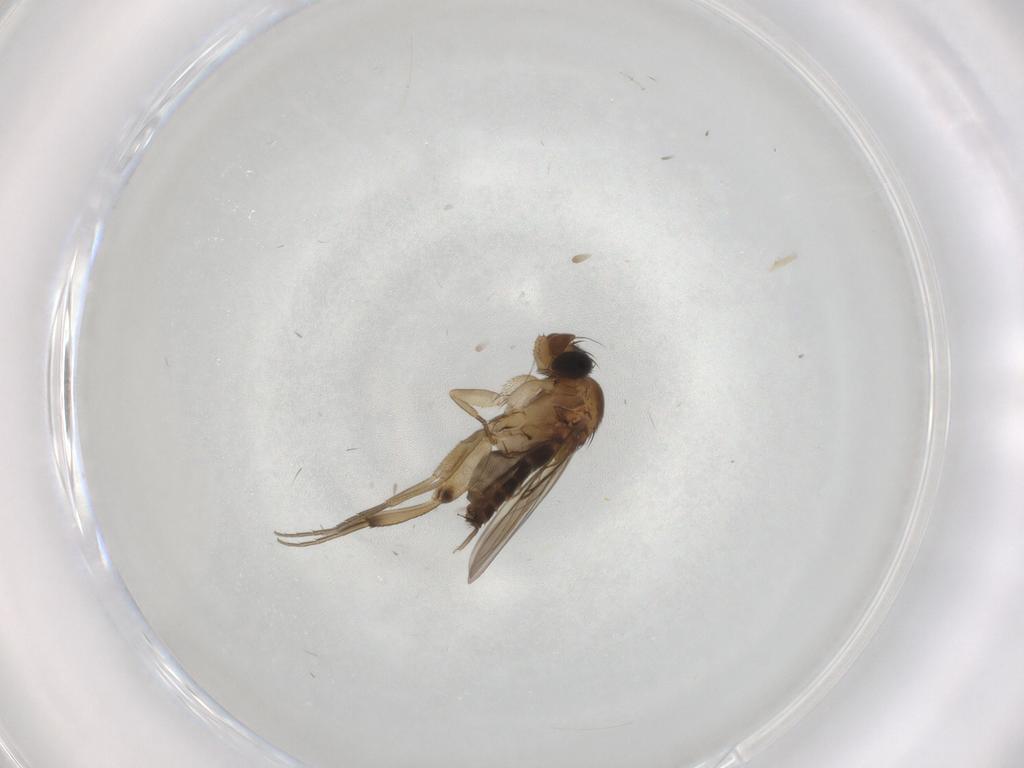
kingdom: Animalia
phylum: Arthropoda
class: Insecta
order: Diptera
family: Phoridae
